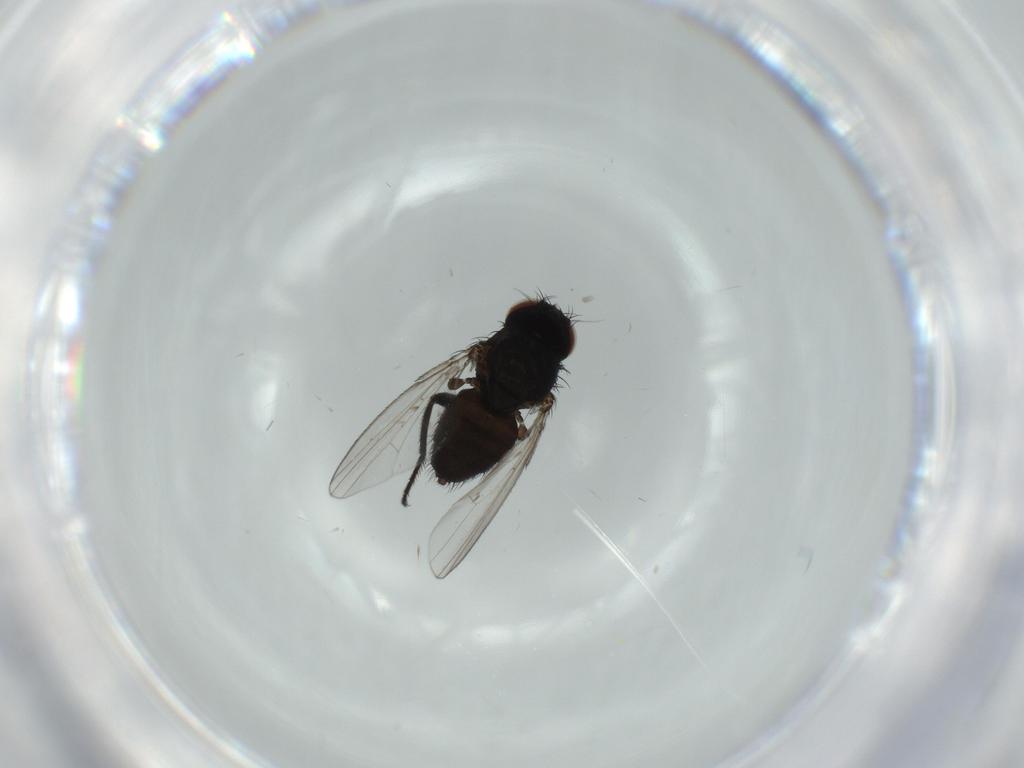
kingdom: Animalia
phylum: Arthropoda
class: Insecta
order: Diptera
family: Milichiidae
